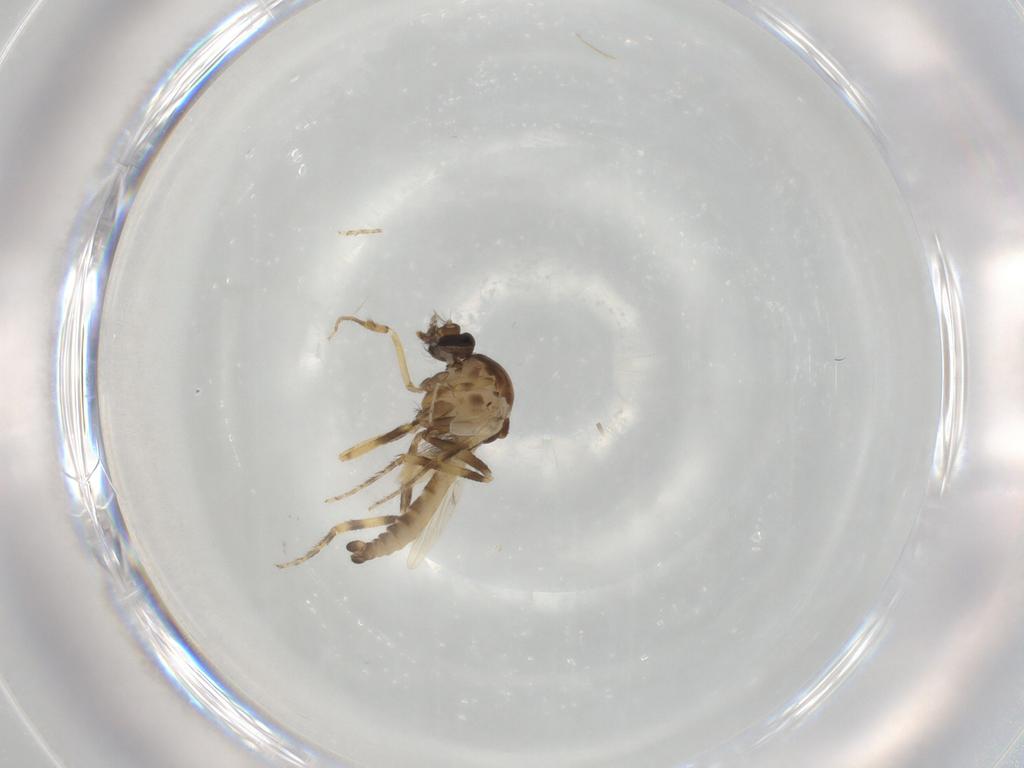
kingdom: Animalia
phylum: Arthropoda
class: Insecta
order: Diptera
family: Ceratopogonidae
